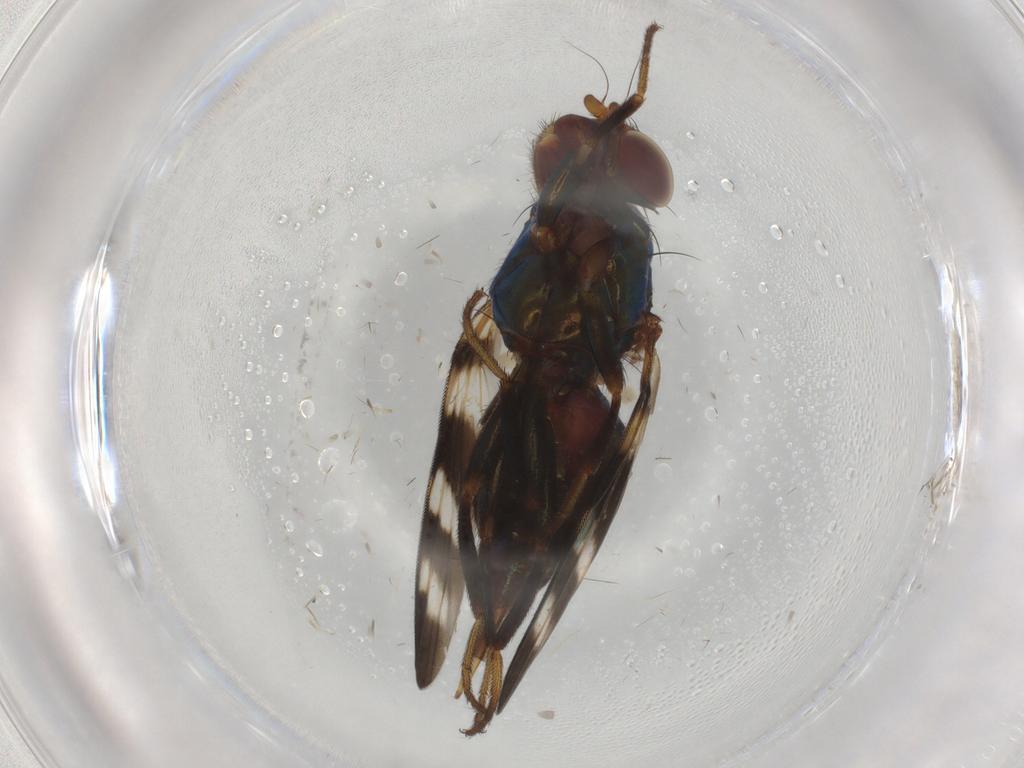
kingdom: Animalia
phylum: Arthropoda
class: Insecta
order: Diptera
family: Ulidiidae
